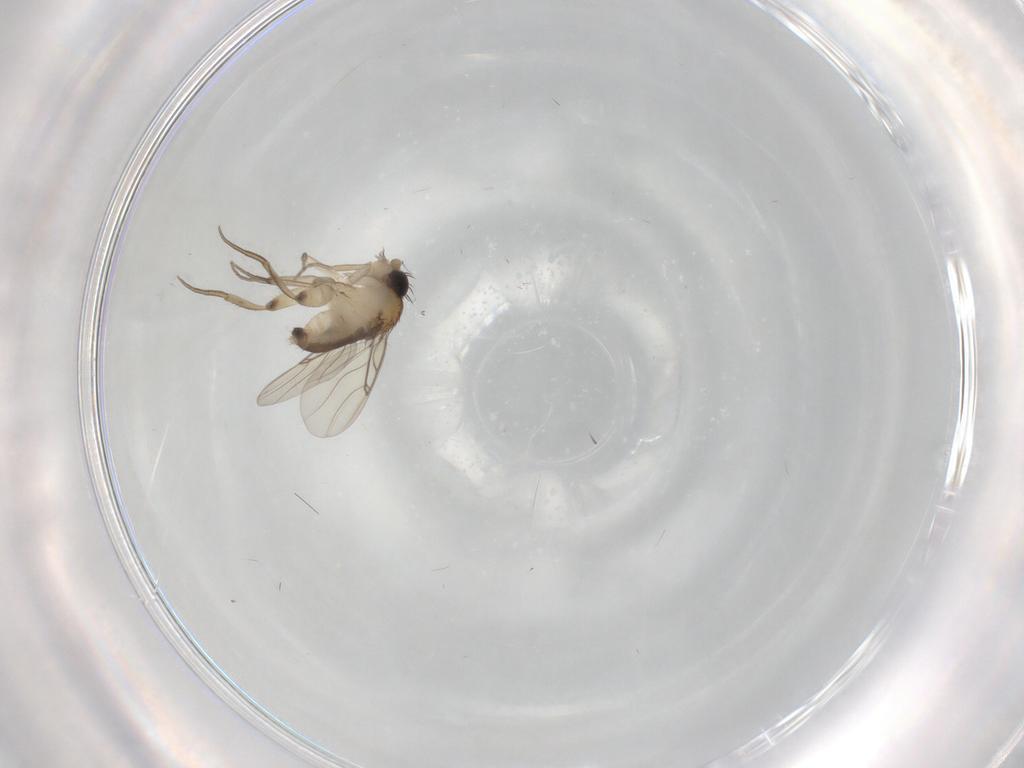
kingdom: Animalia
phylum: Arthropoda
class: Insecta
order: Diptera
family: Phoridae
